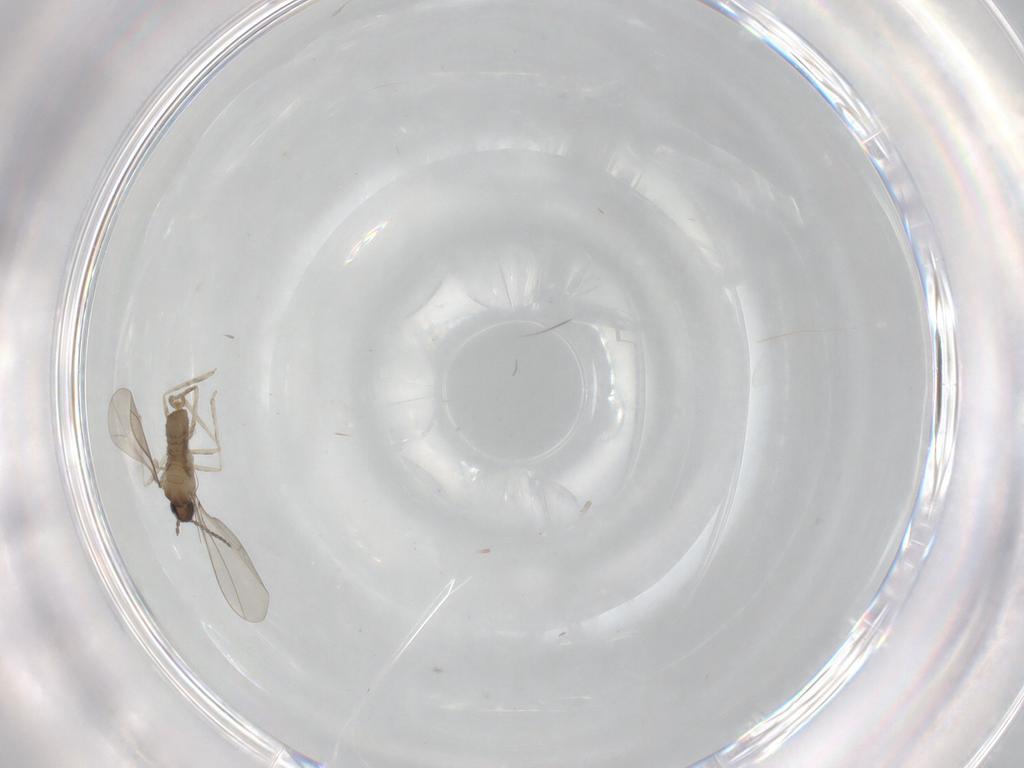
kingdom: Animalia
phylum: Arthropoda
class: Insecta
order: Diptera
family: Cecidomyiidae
